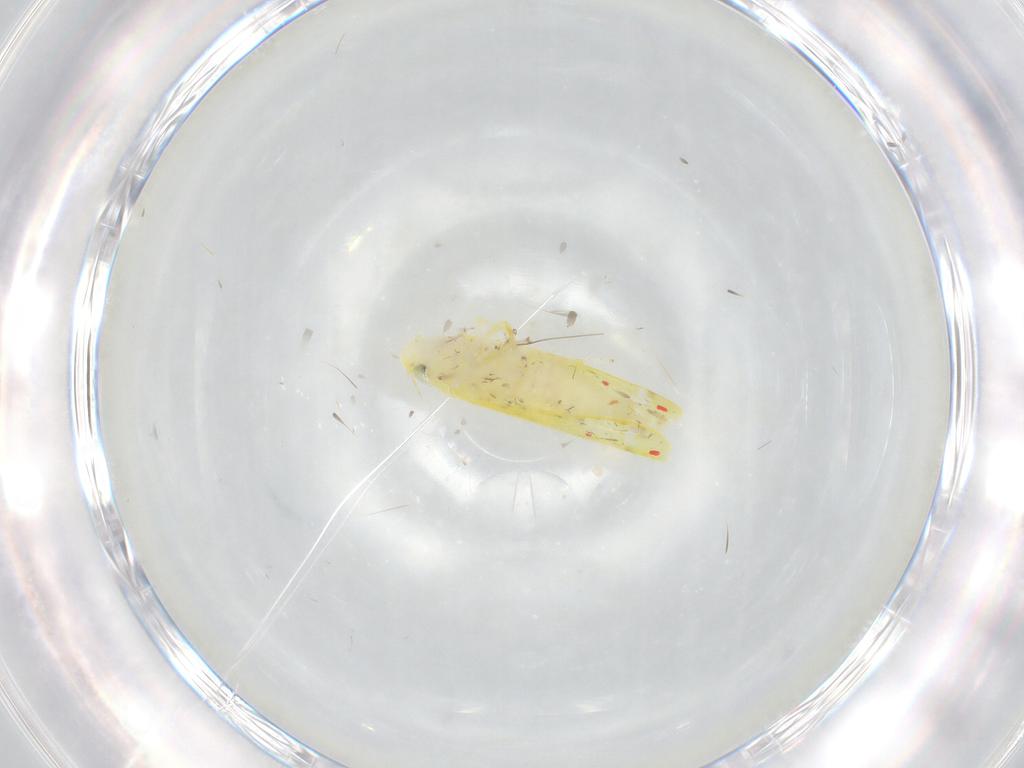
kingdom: Animalia
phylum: Arthropoda
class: Insecta
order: Hemiptera
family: Cicadellidae
